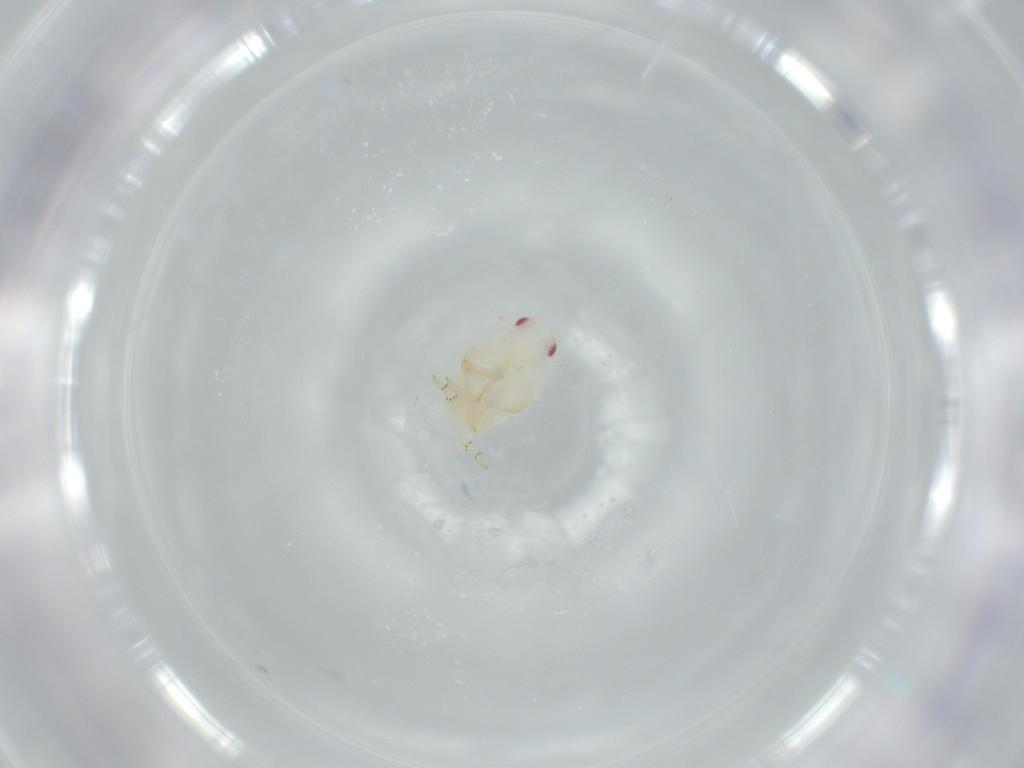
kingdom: Animalia
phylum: Arthropoda
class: Insecta
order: Hemiptera
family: Flatidae
